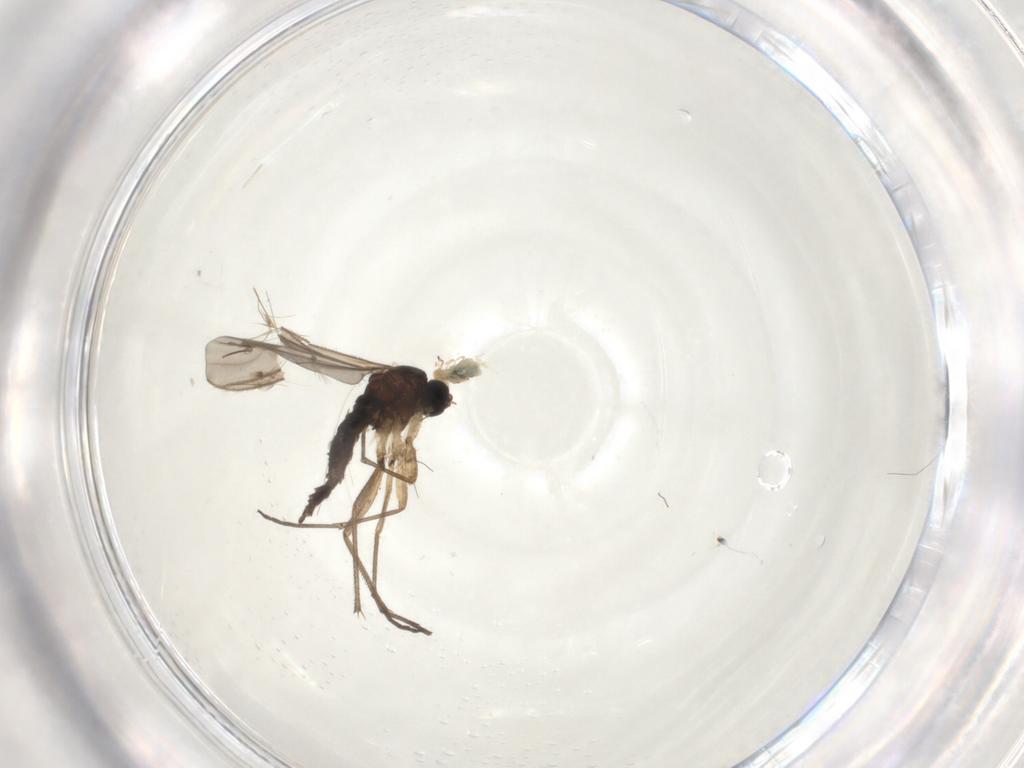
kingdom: Animalia
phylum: Arthropoda
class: Insecta
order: Diptera
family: Sciaridae
